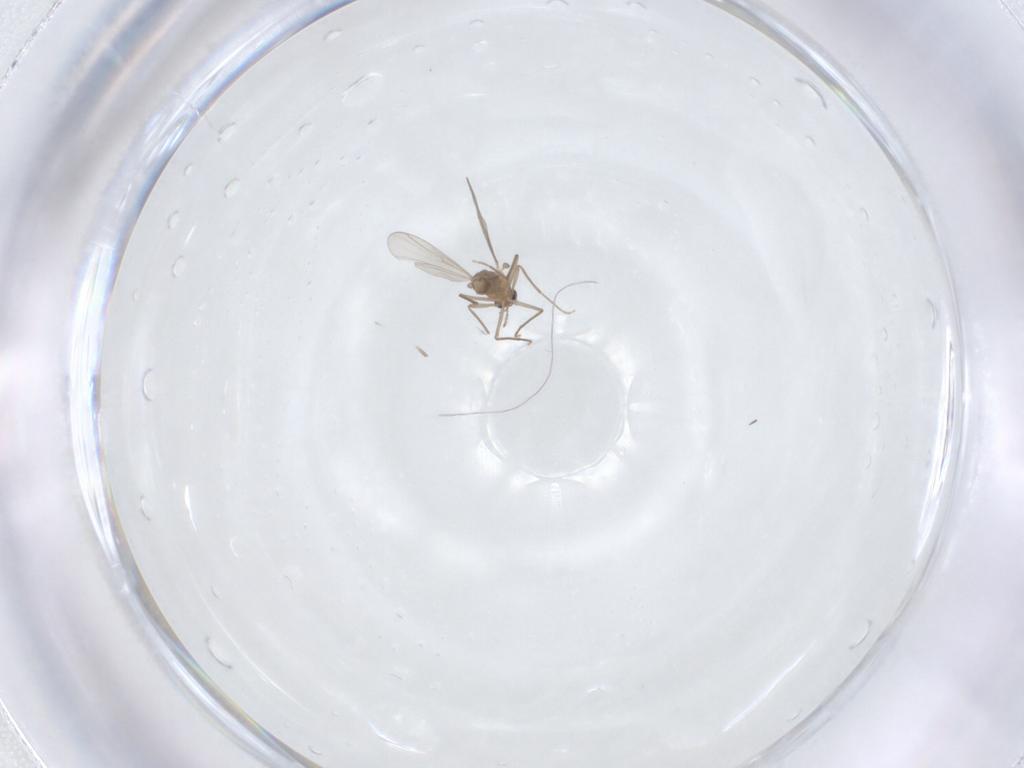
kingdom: Animalia
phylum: Arthropoda
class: Insecta
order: Diptera
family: Chironomidae
